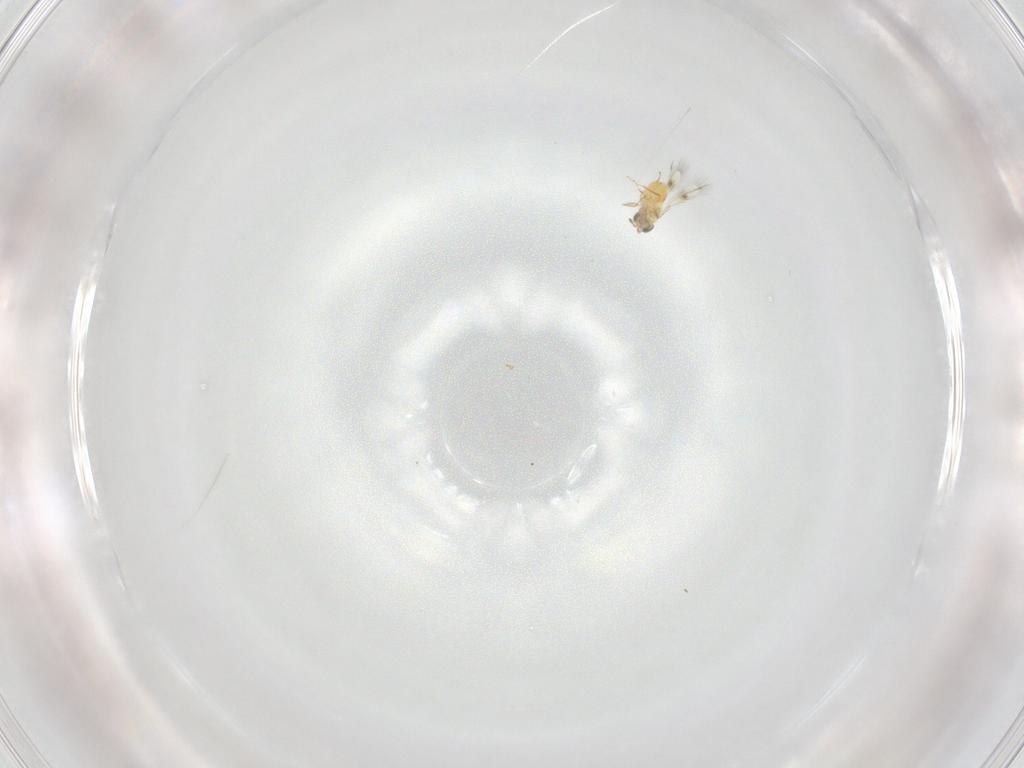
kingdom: Animalia
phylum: Arthropoda
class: Insecta
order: Hymenoptera
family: Trichogrammatidae
